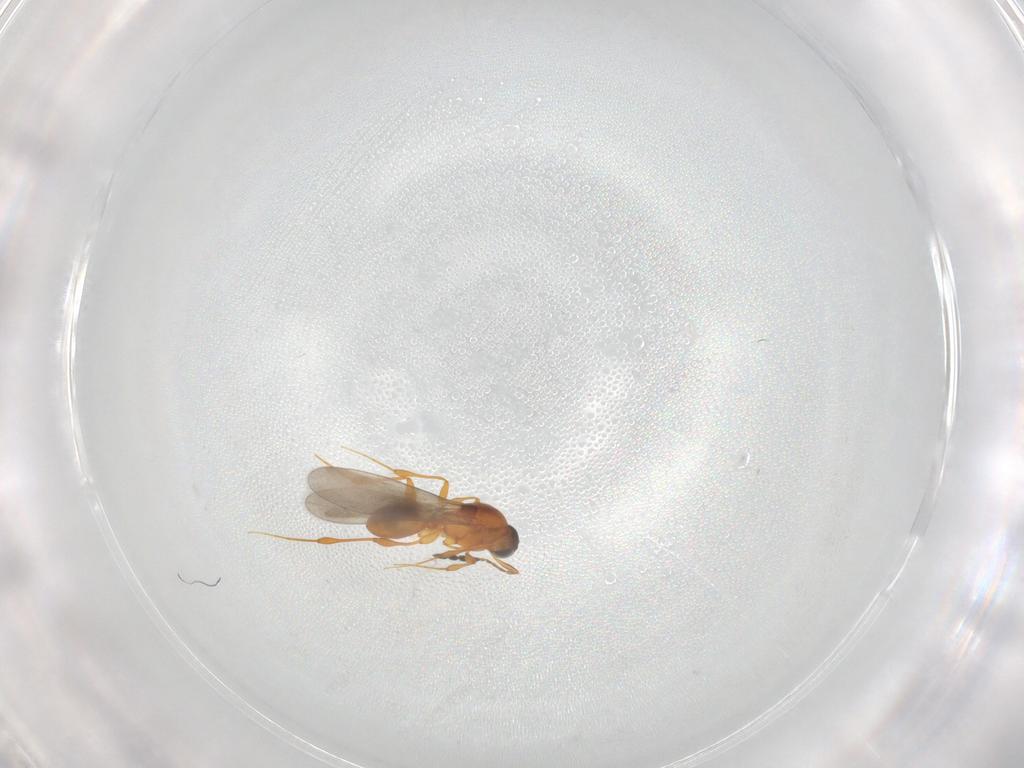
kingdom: Animalia
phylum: Arthropoda
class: Insecta
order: Hymenoptera
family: Platygastridae
